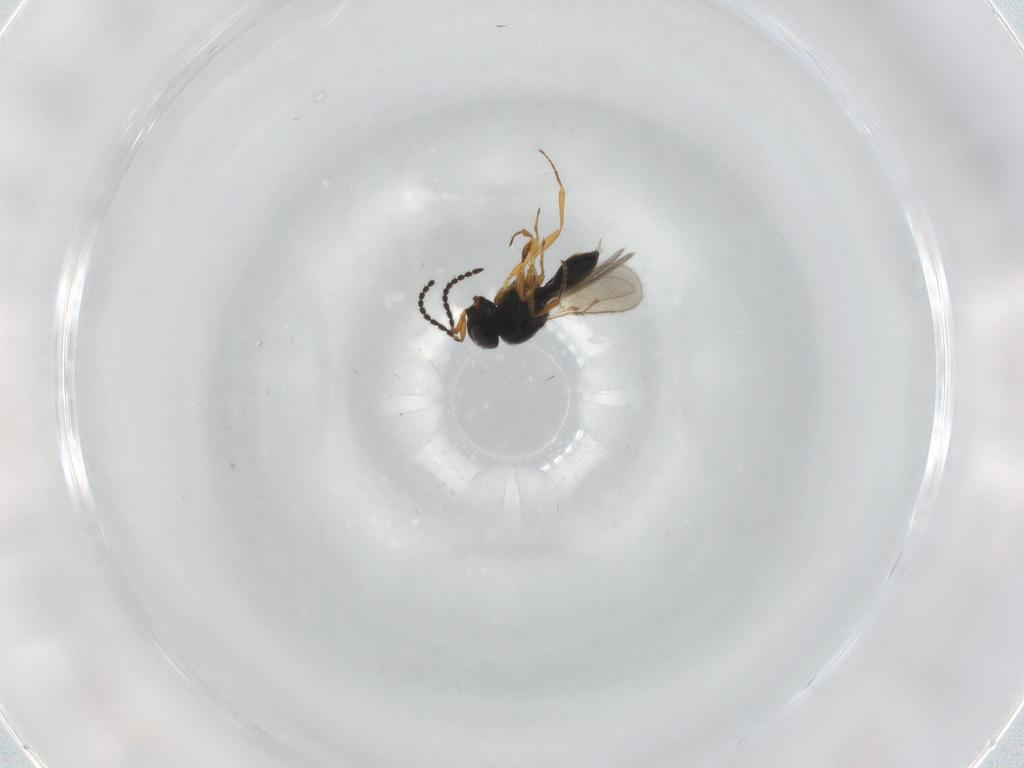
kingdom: Animalia
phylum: Arthropoda
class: Insecta
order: Hymenoptera
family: Scelionidae
